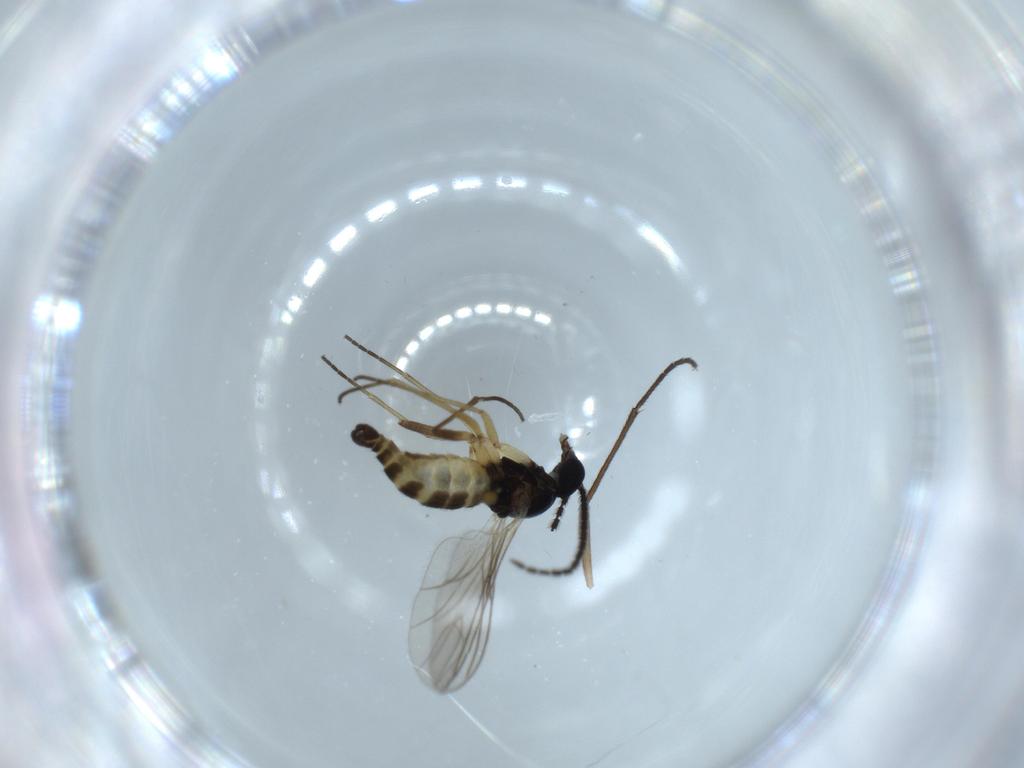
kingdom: Animalia
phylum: Arthropoda
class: Insecta
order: Diptera
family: Sciaridae
